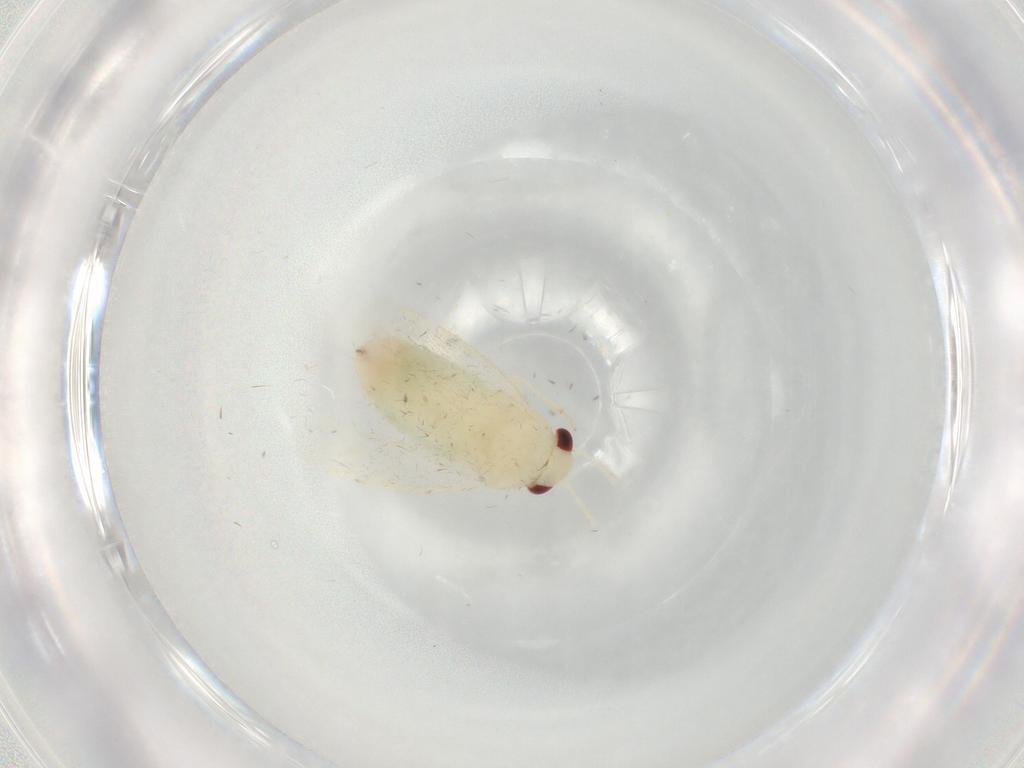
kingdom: Animalia
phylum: Arthropoda
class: Insecta
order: Hemiptera
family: Miridae
